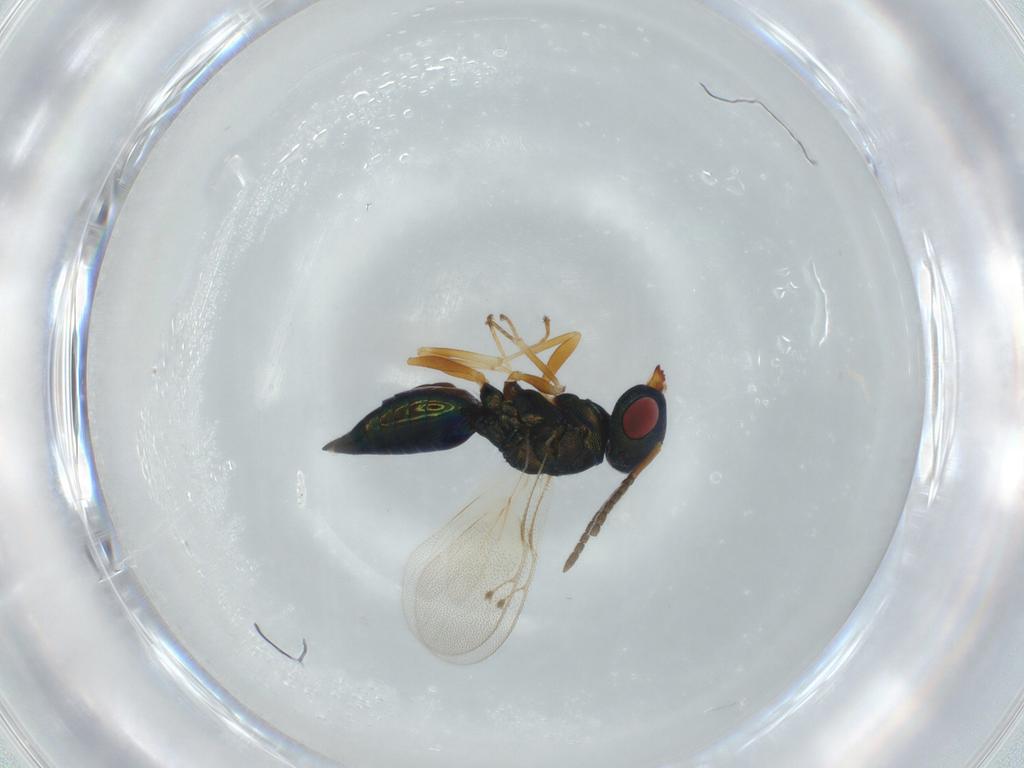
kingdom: Animalia
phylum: Arthropoda
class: Insecta
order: Hymenoptera
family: Pteromalidae
